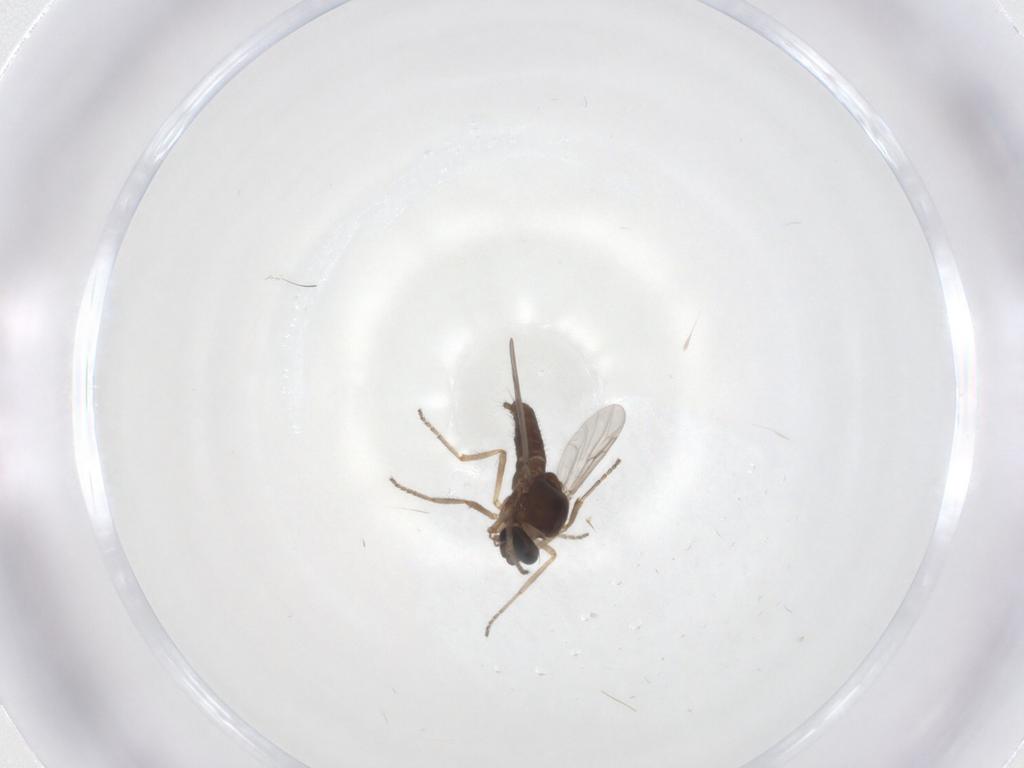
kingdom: Animalia
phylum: Arthropoda
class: Insecta
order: Diptera
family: Ceratopogonidae
